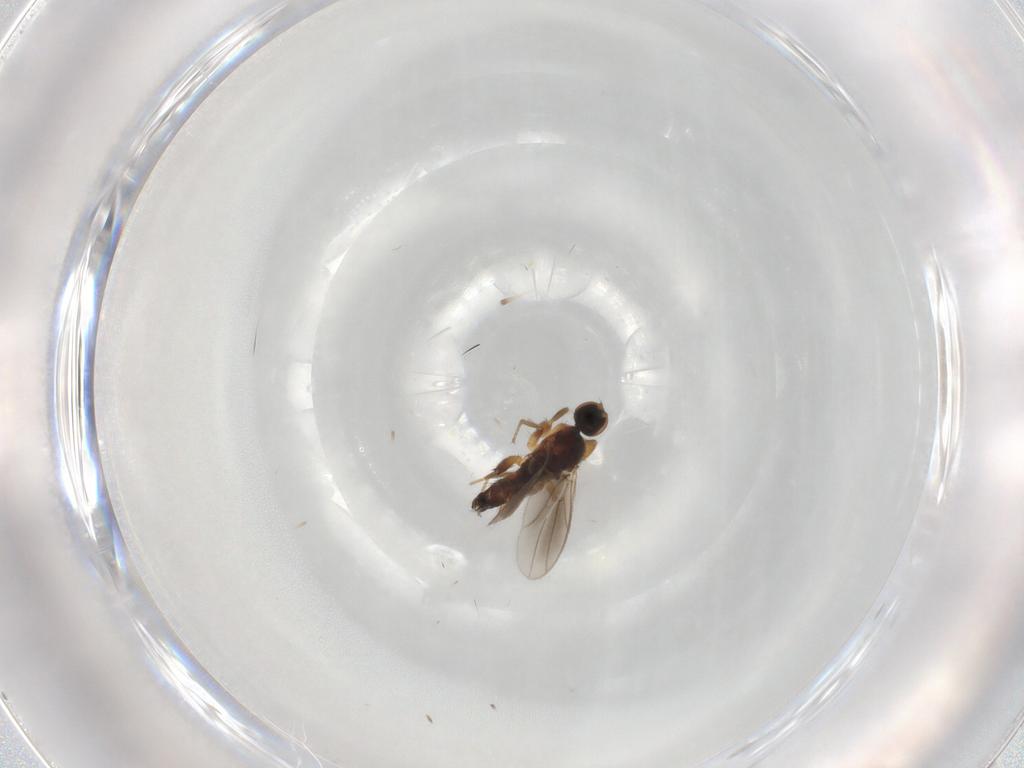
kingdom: Animalia
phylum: Arthropoda
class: Insecta
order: Diptera
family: Hybotidae
